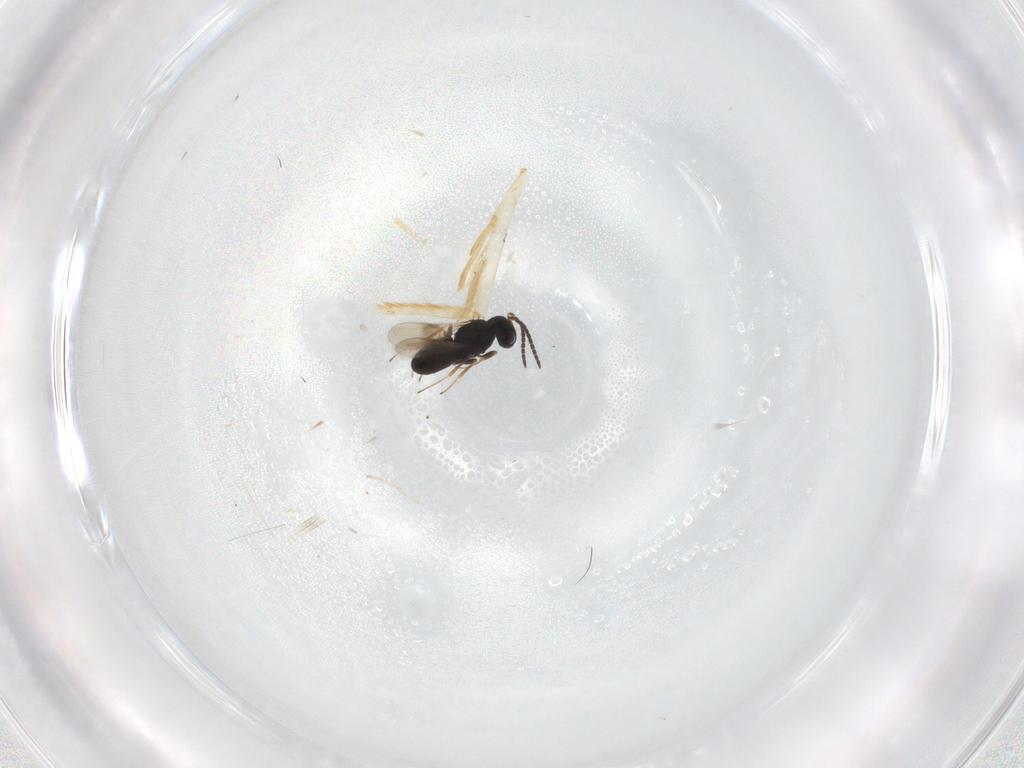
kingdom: Animalia
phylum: Arthropoda
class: Insecta
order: Hymenoptera
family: Scelionidae
